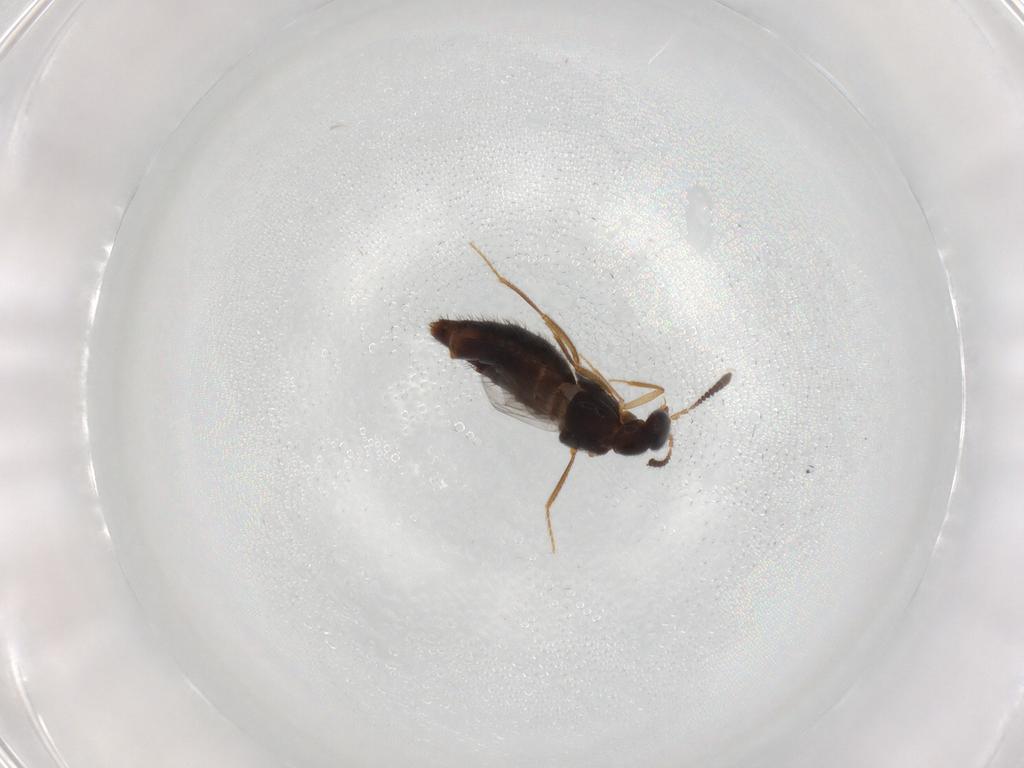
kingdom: Animalia
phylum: Arthropoda
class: Insecta
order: Coleoptera
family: Staphylinidae
